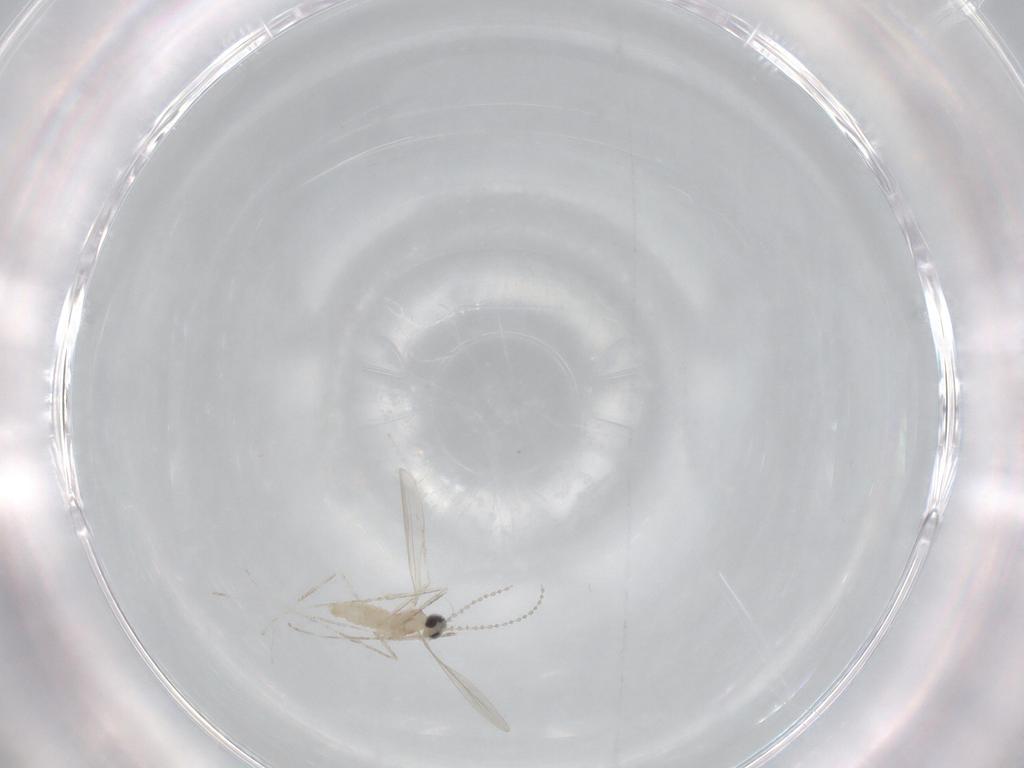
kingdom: Animalia
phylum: Arthropoda
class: Insecta
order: Diptera
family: Cecidomyiidae
